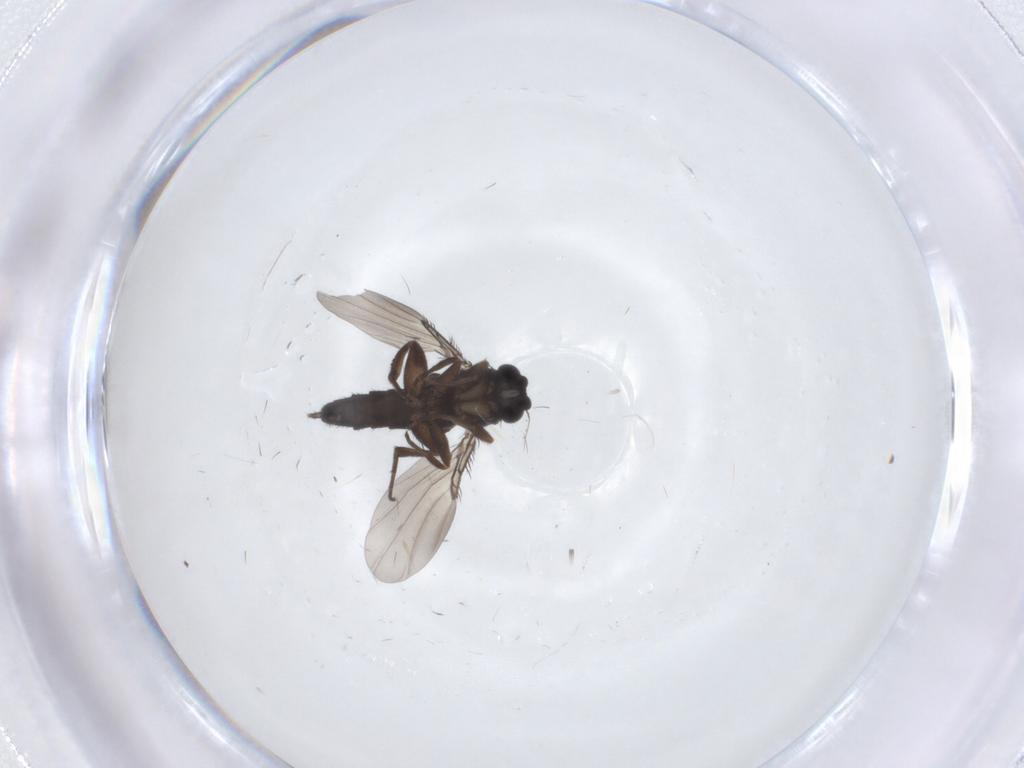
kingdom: Animalia
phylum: Arthropoda
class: Insecta
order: Diptera
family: Phoridae
